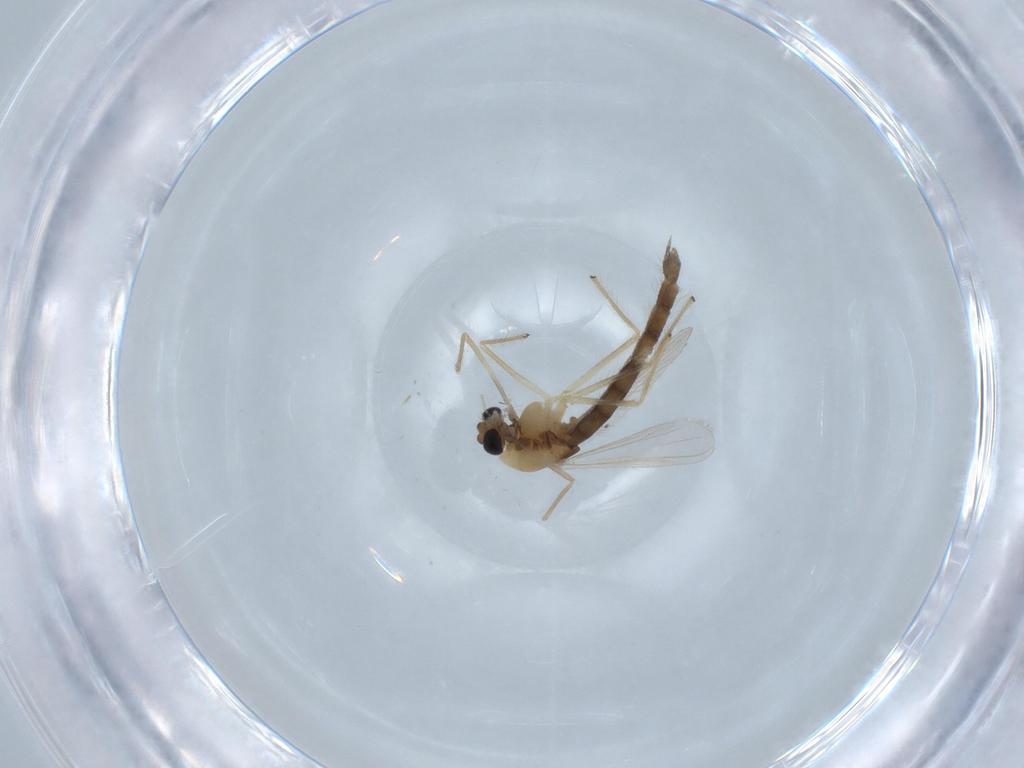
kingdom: Animalia
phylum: Arthropoda
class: Insecta
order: Diptera
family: Chironomidae
